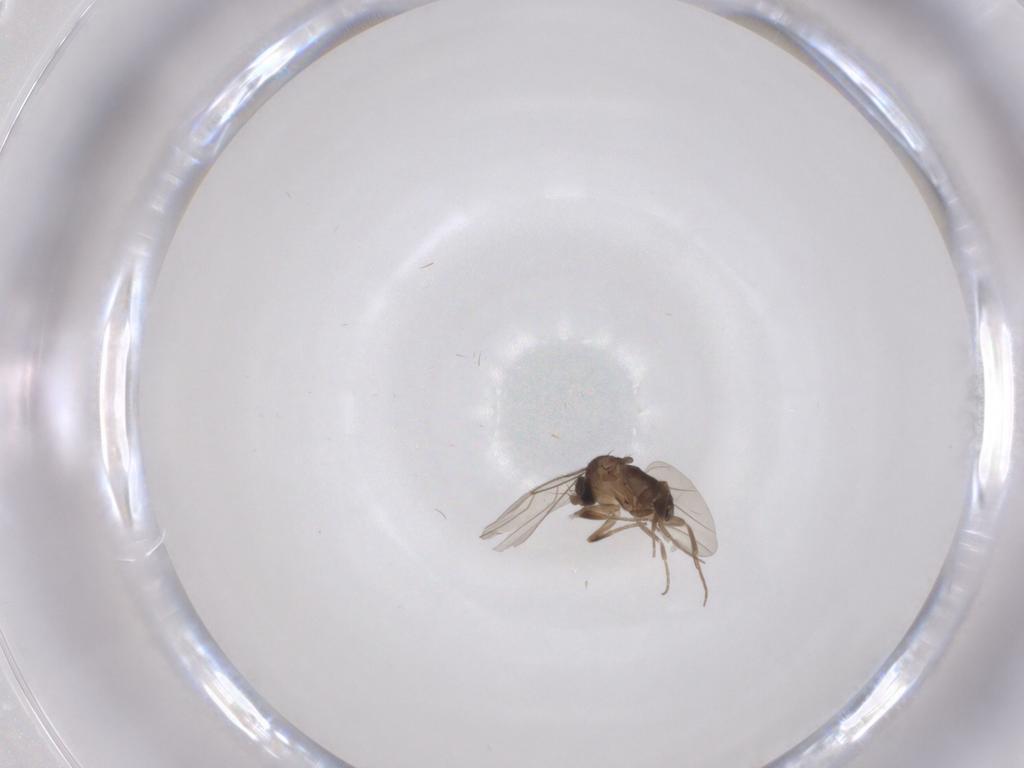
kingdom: Animalia
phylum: Arthropoda
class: Insecta
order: Diptera
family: Phoridae
